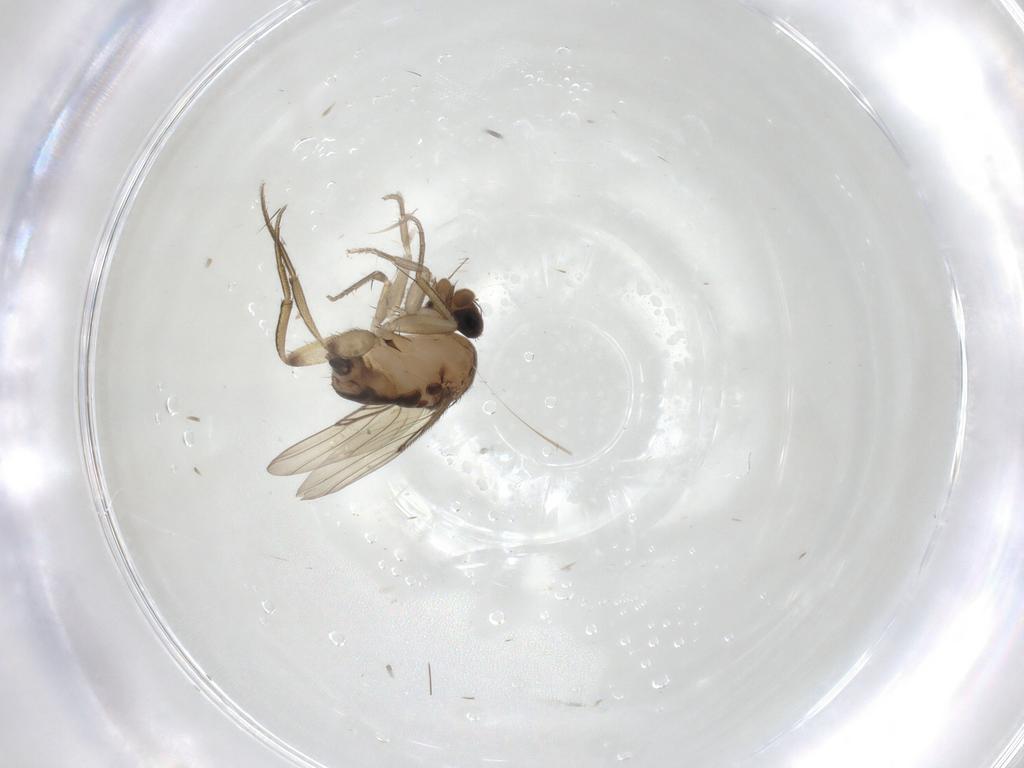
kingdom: Animalia
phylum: Arthropoda
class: Insecta
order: Diptera
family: Phoridae
